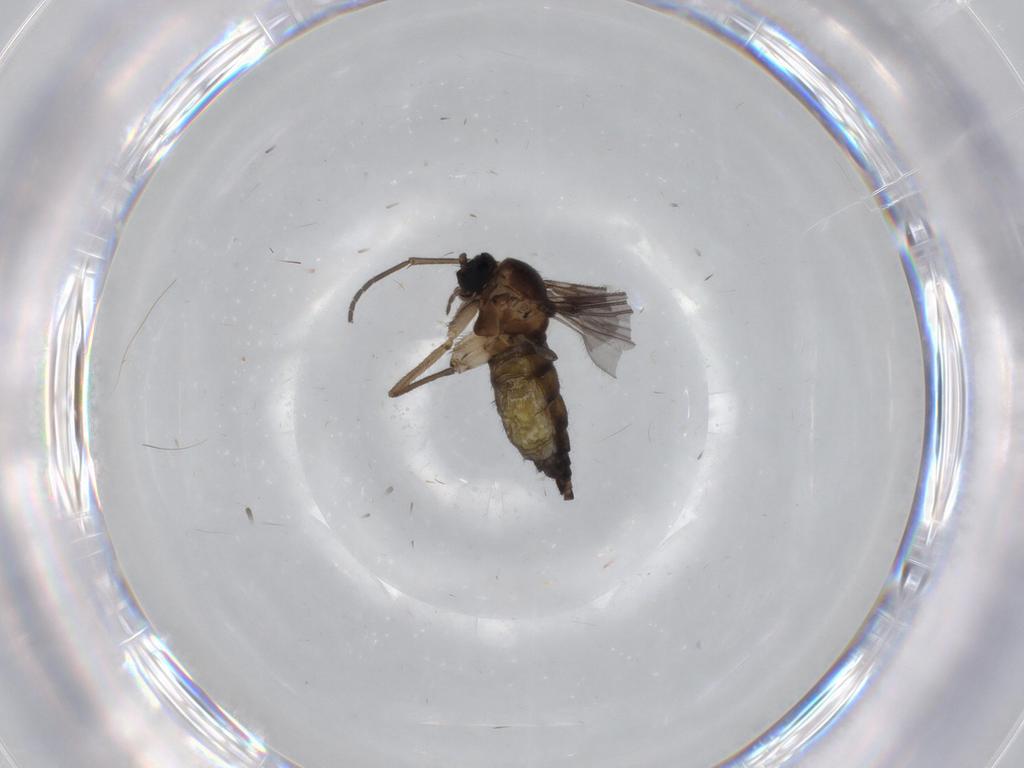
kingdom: Animalia
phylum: Arthropoda
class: Insecta
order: Diptera
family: Sciaridae
